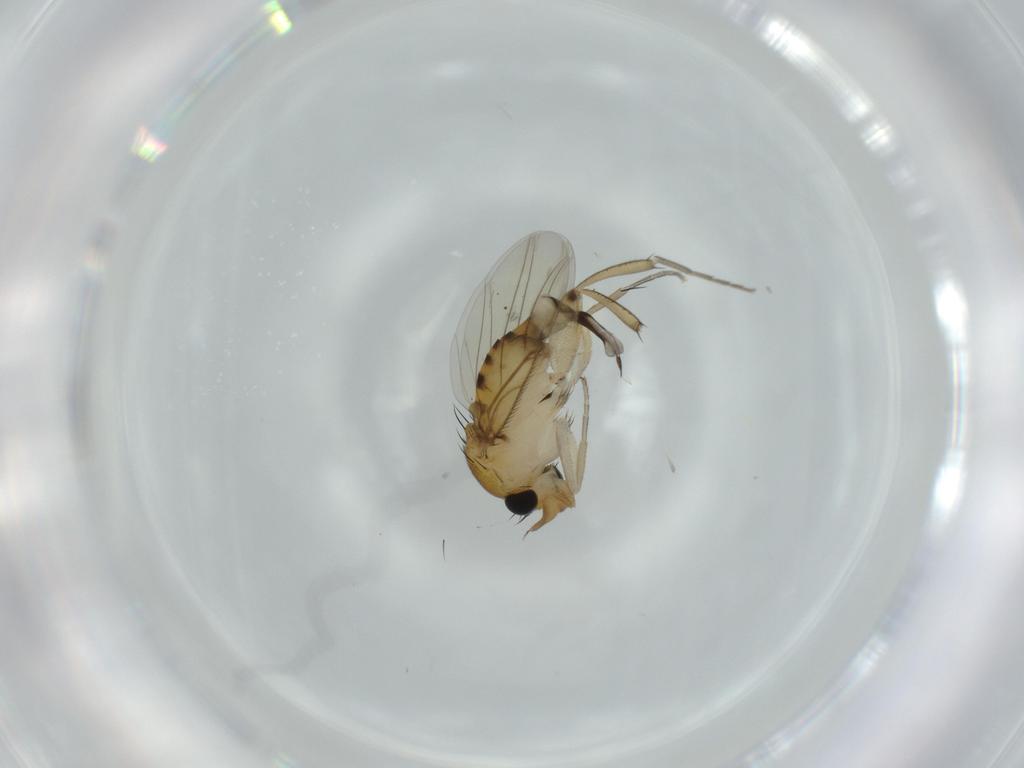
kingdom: Animalia
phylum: Arthropoda
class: Insecta
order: Diptera
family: Phoridae
